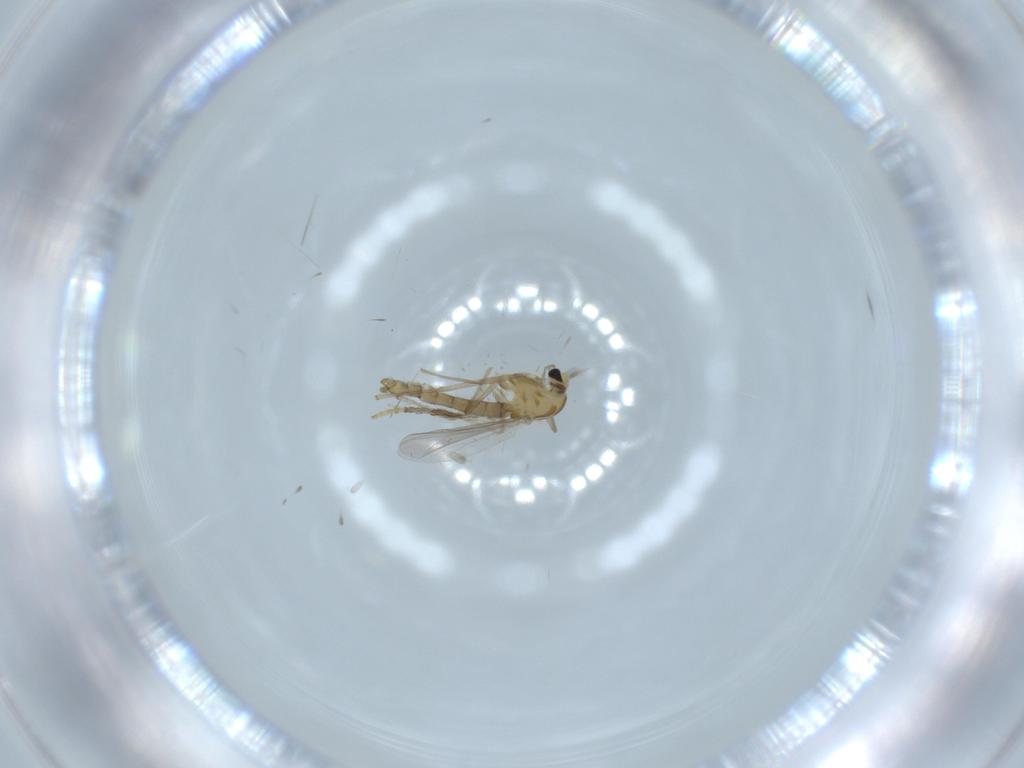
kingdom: Animalia
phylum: Arthropoda
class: Insecta
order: Diptera
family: Chironomidae
